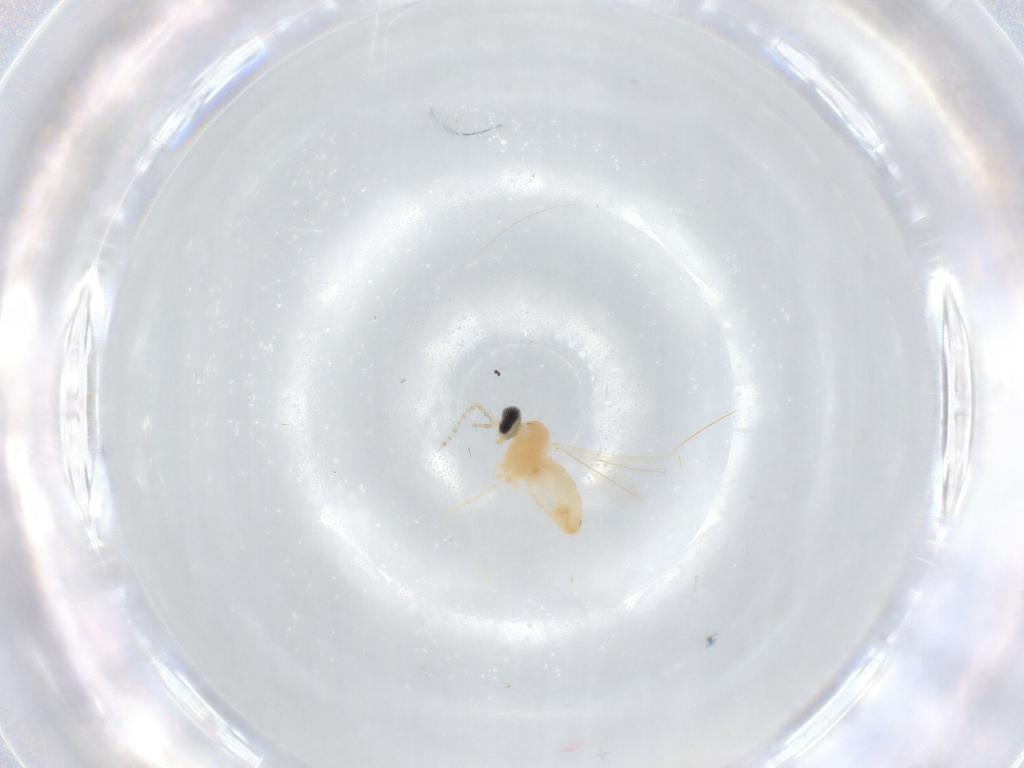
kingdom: Animalia
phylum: Arthropoda
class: Insecta
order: Diptera
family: Cecidomyiidae
